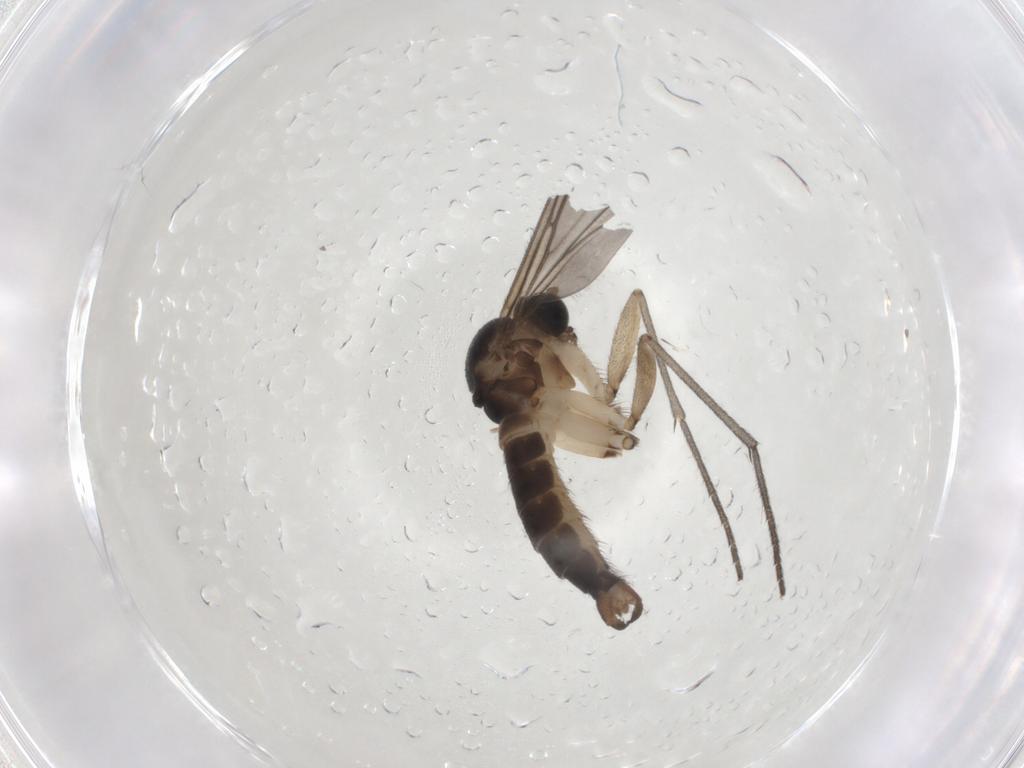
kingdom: Animalia
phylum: Arthropoda
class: Insecta
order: Diptera
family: Sciaridae
